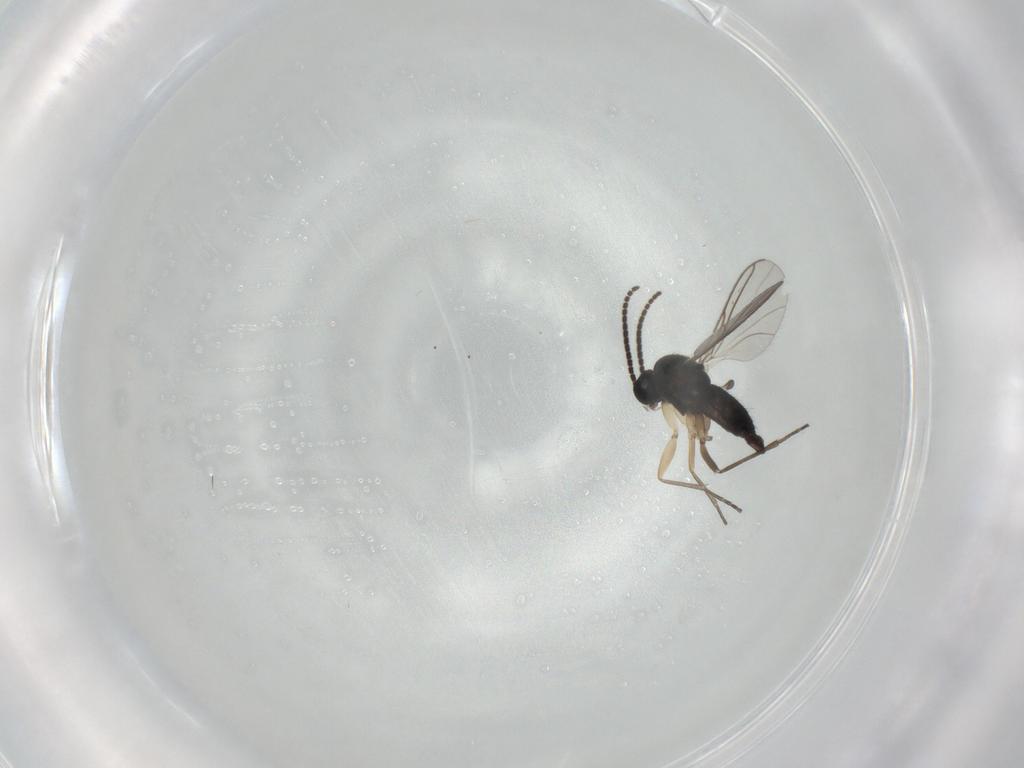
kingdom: Animalia
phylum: Arthropoda
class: Insecta
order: Diptera
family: Sciaridae
